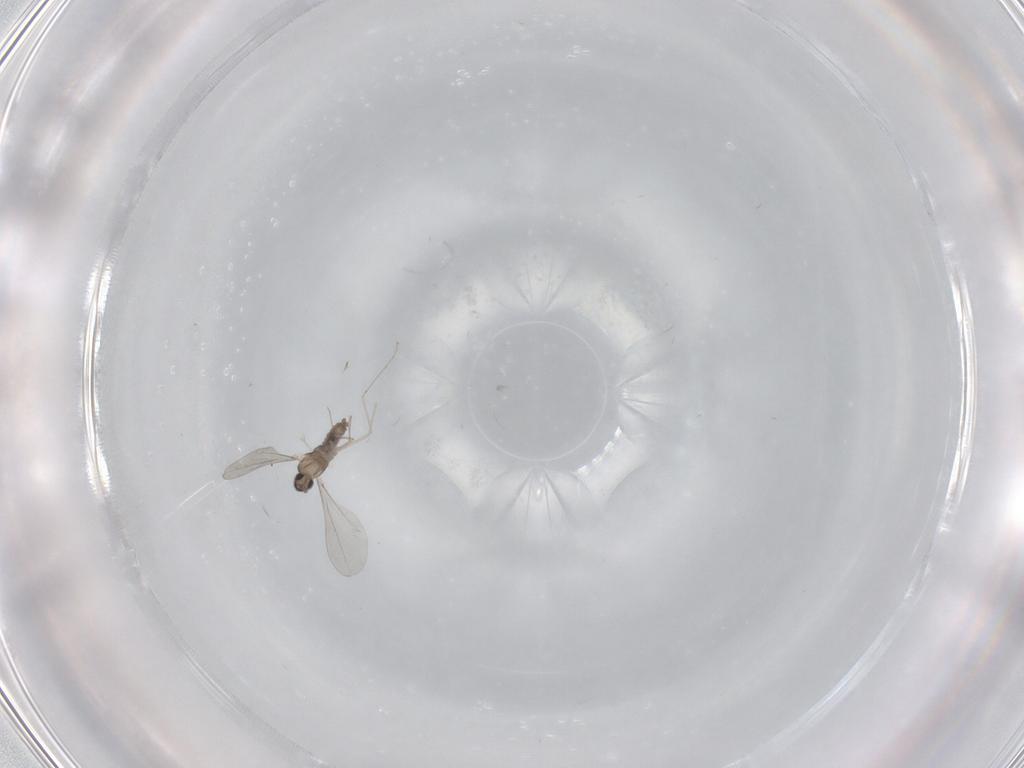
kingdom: Animalia
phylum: Arthropoda
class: Insecta
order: Diptera
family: Cecidomyiidae
